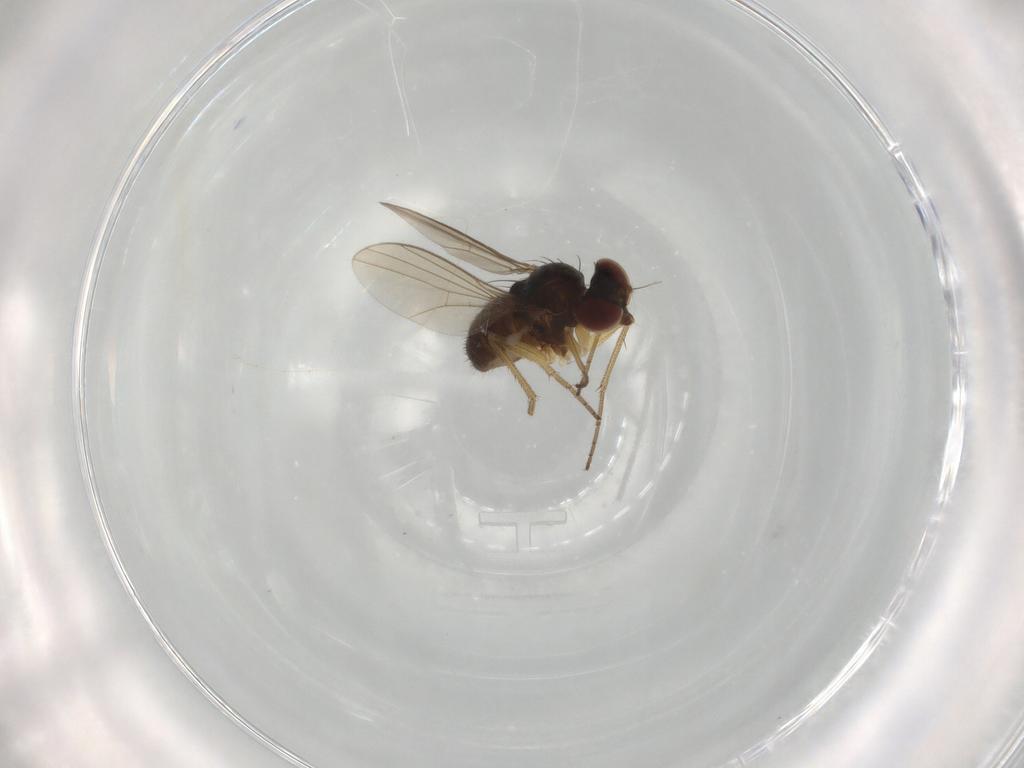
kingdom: Animalia
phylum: Arthropoda
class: Insecta
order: Diptera
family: Dolichopodidae
